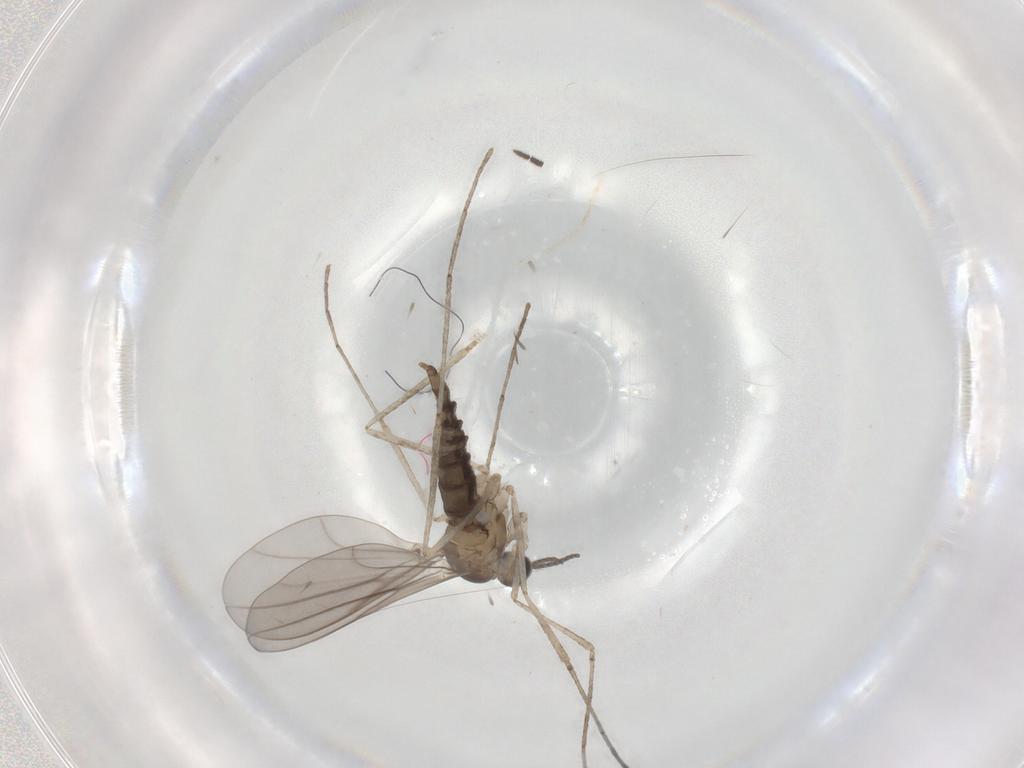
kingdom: Animalia
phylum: Arthropoda
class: Insecta
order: Diptera
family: Cecidomyiidae
